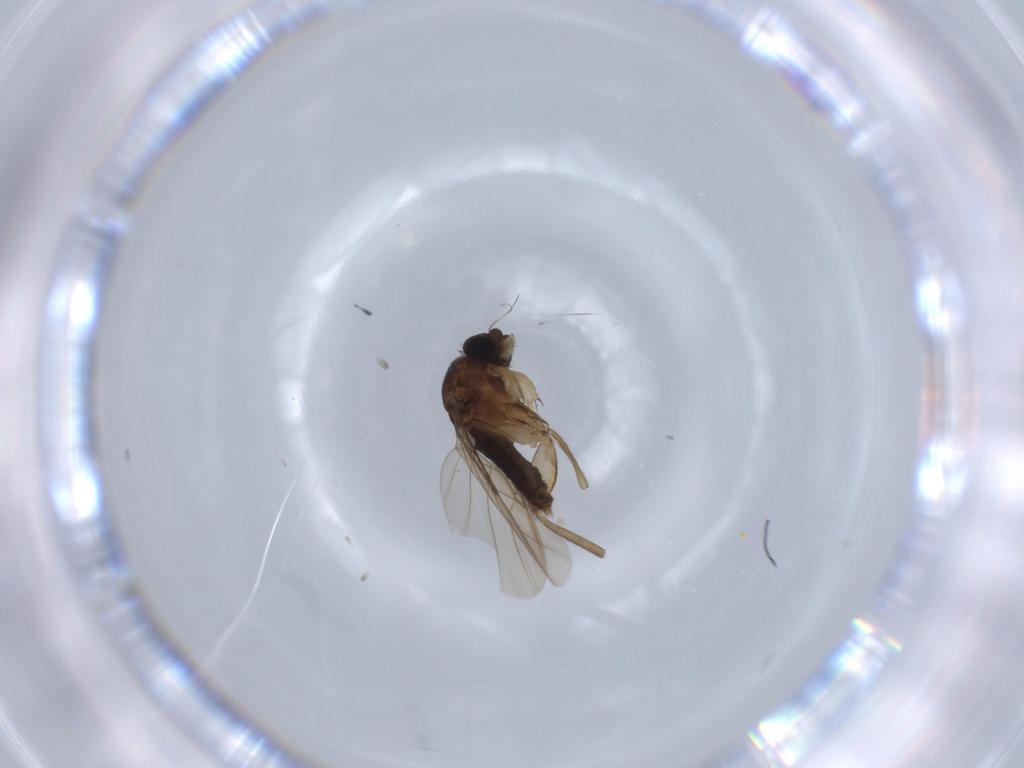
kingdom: Animalia
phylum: Arthropoda
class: Insecta
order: Diptera
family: Phoridae
